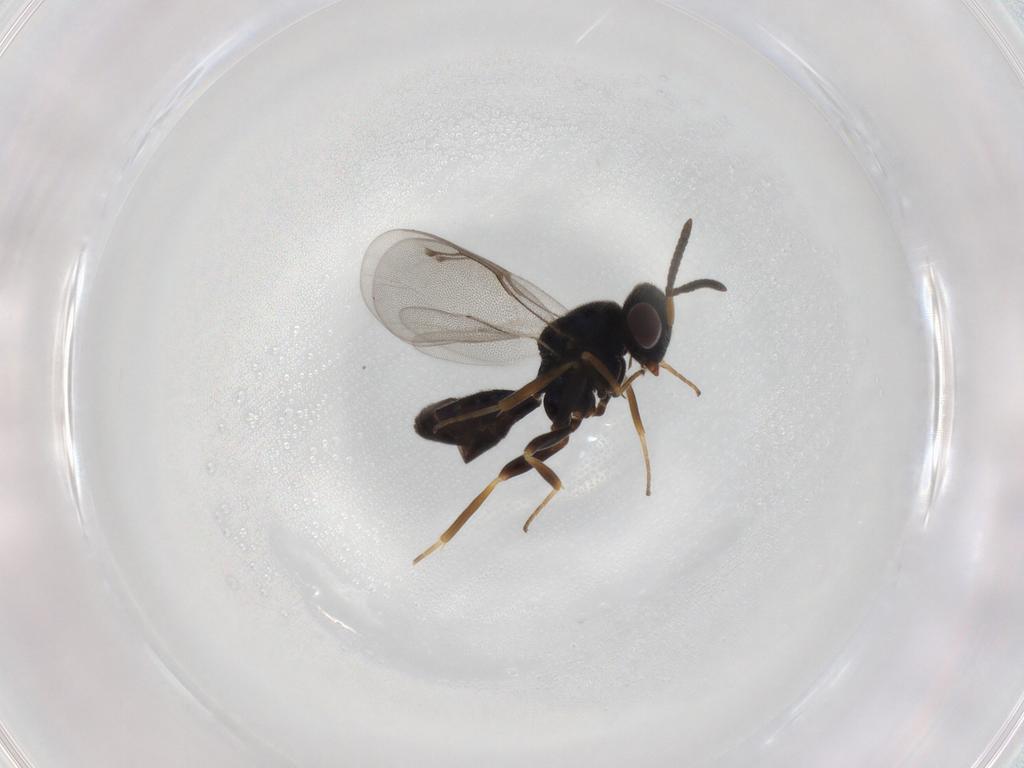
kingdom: Animalia
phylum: Arthropoda
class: Insecta
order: Hymenoptera
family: Pteromalidae
